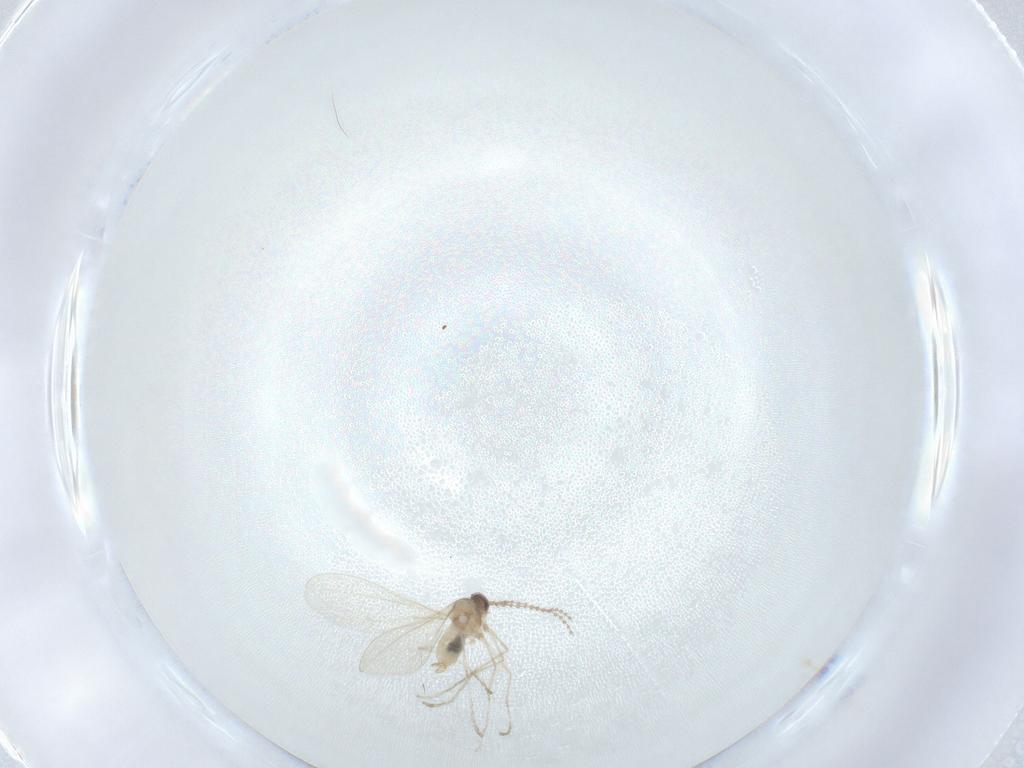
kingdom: Animalia
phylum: Arthropoda
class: Insecta
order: Diptera
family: Cecidomyiidae
